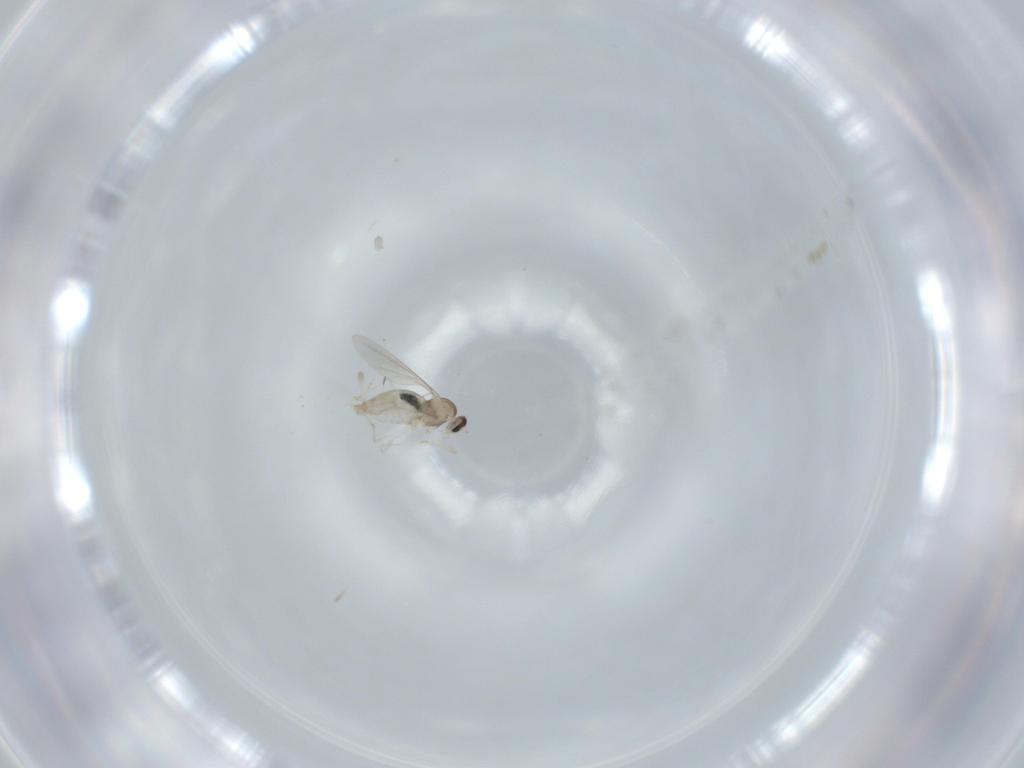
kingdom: Animalia
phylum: Arthropoda
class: Insecta
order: Diptera
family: Cecidomyiidae
